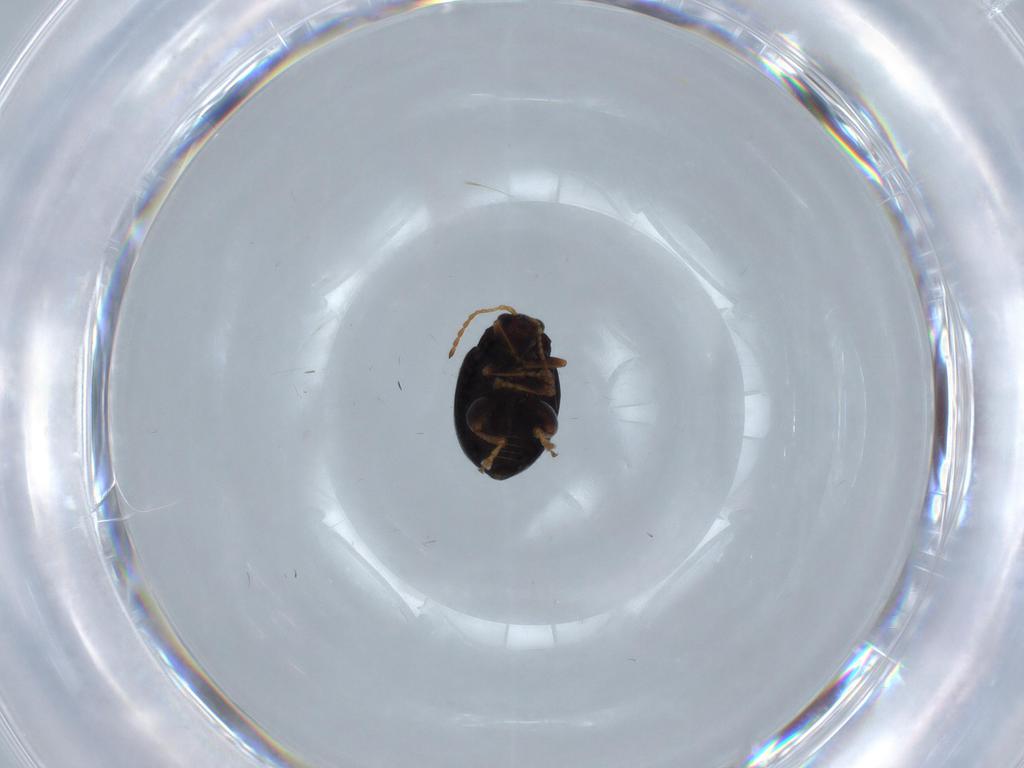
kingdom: Animalia
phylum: Arthropoda
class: Insecta
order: Coleoptera
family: Chrysomelidae
